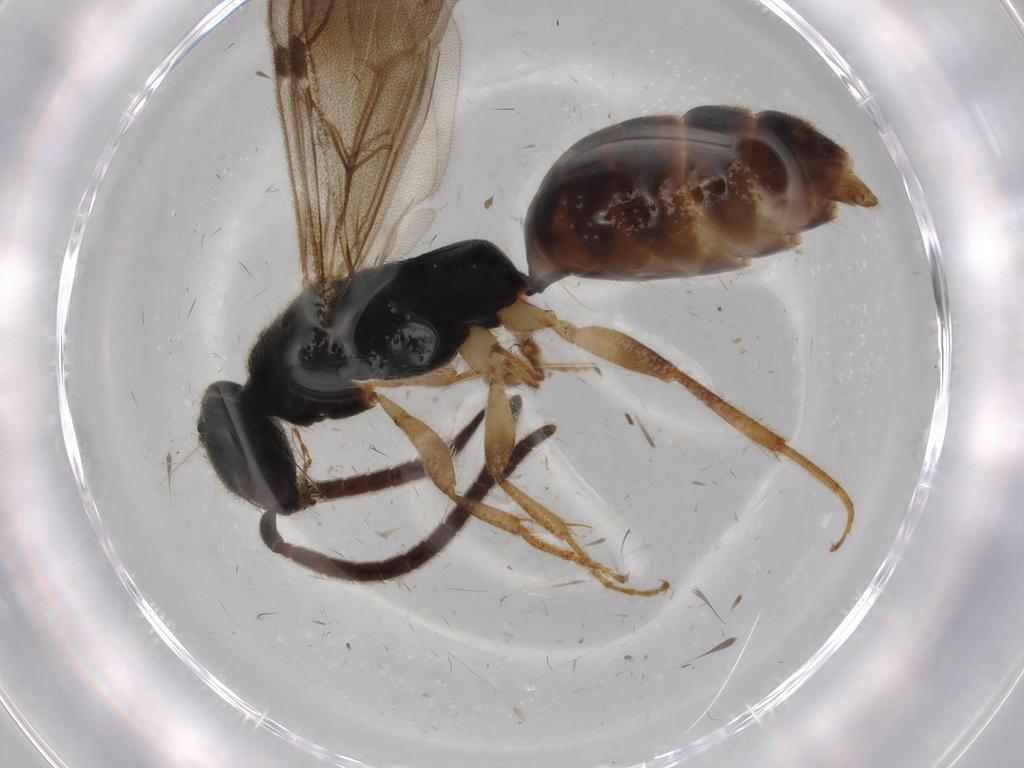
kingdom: Animalia
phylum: Arthropoda
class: Insecta
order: Hymenoptera
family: Bethylidae
